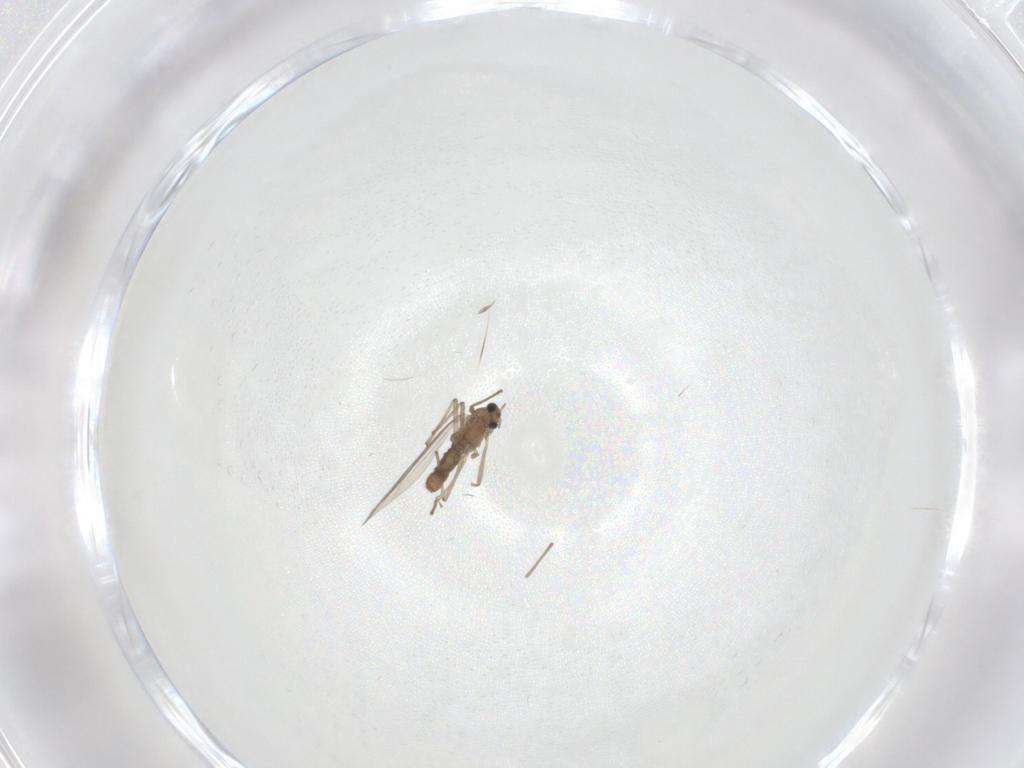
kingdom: Animalia
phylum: Arthropoda
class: Insecta
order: Diptera
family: Chironomidae
